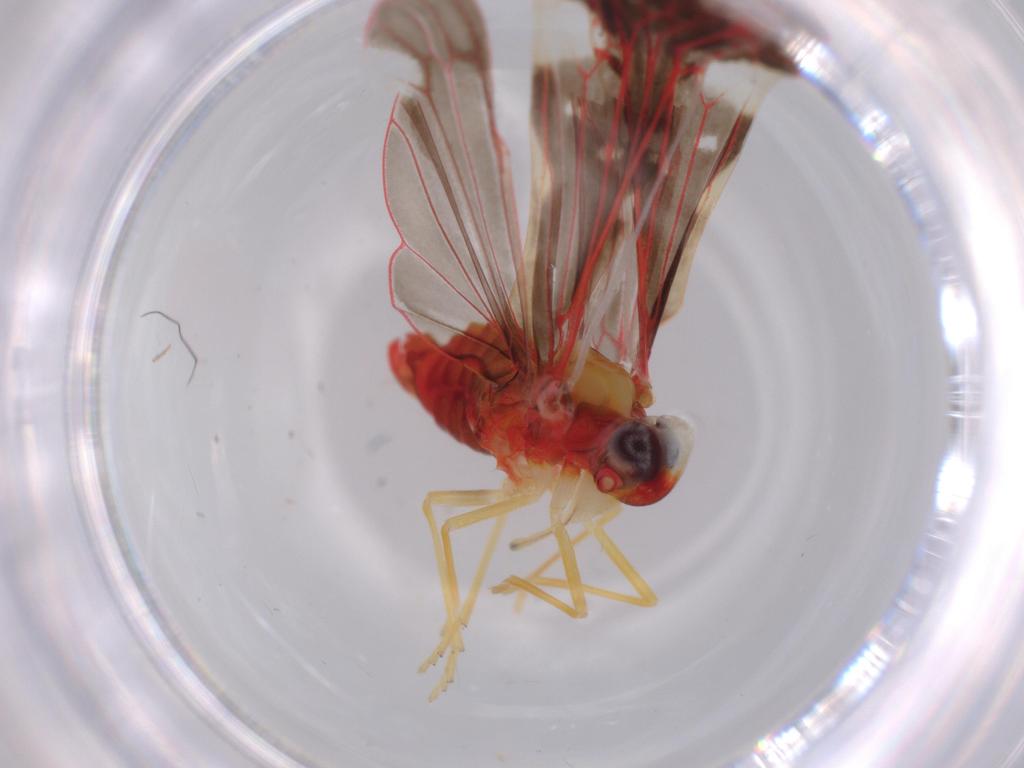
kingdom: Animalia
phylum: Arthropoda
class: Insecta
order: Hemiptera
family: Derbidae
